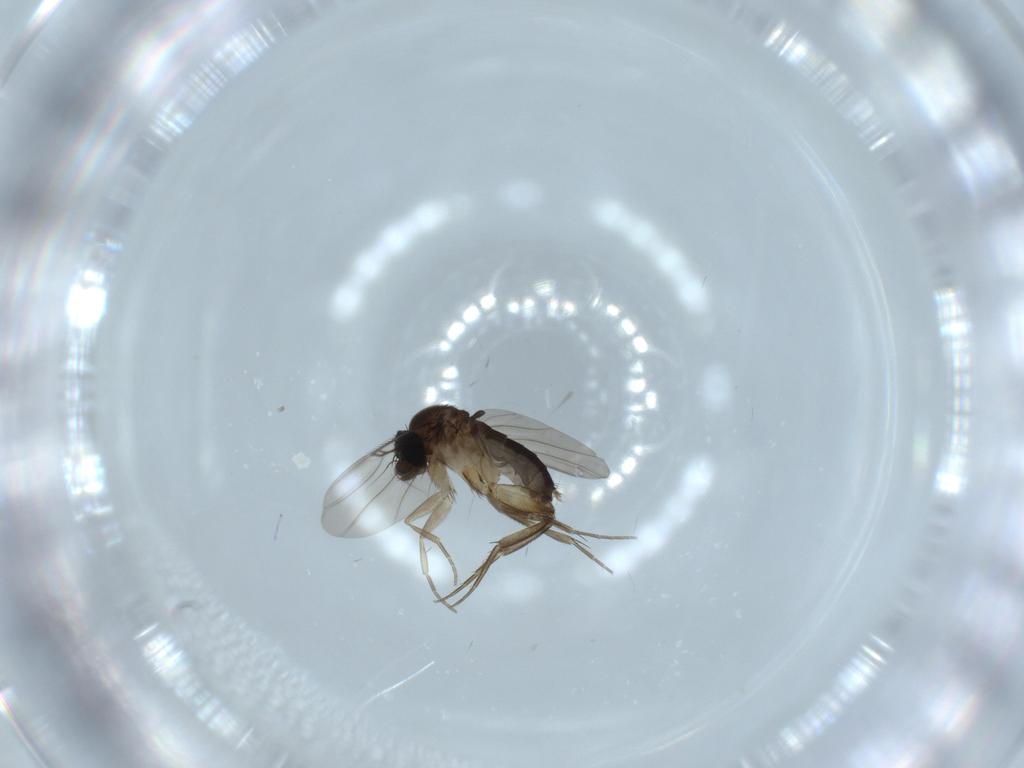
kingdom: Animalia
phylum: Arthropoda
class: Insecta
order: Diptera
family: Phoridae
